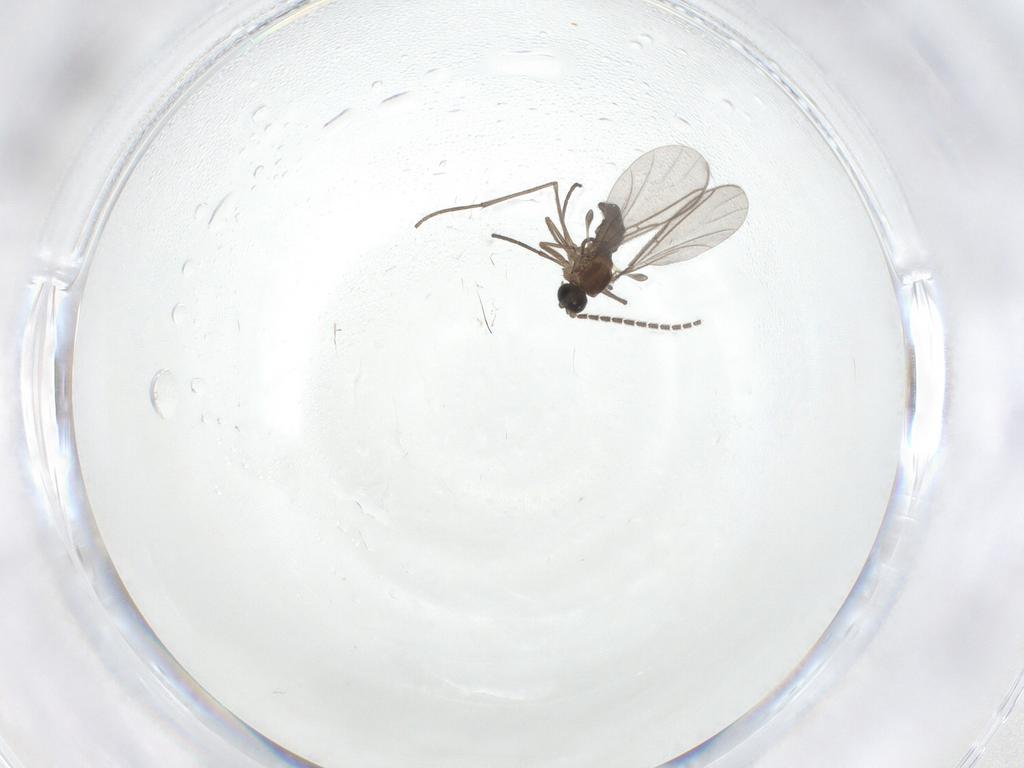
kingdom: Animalia
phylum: Arthropoda
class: Insecta
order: Diptera
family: Sciaridae
